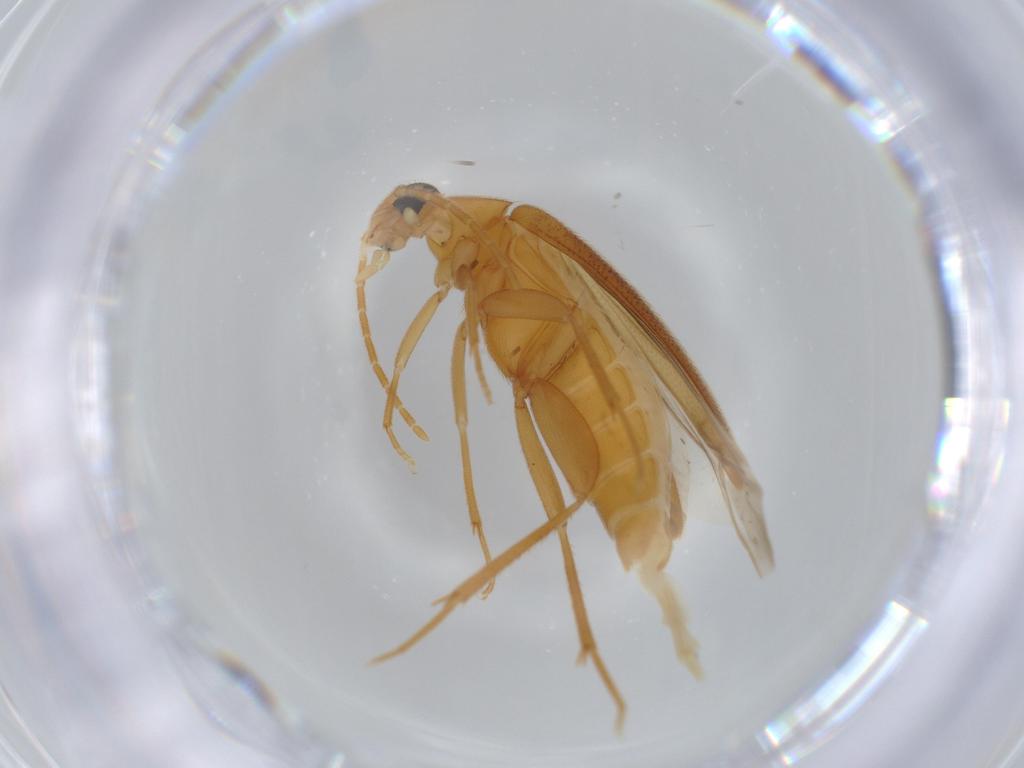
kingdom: Animalia
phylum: Arthropoda
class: Insecta
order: Coleoptera
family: Scraptiidae
